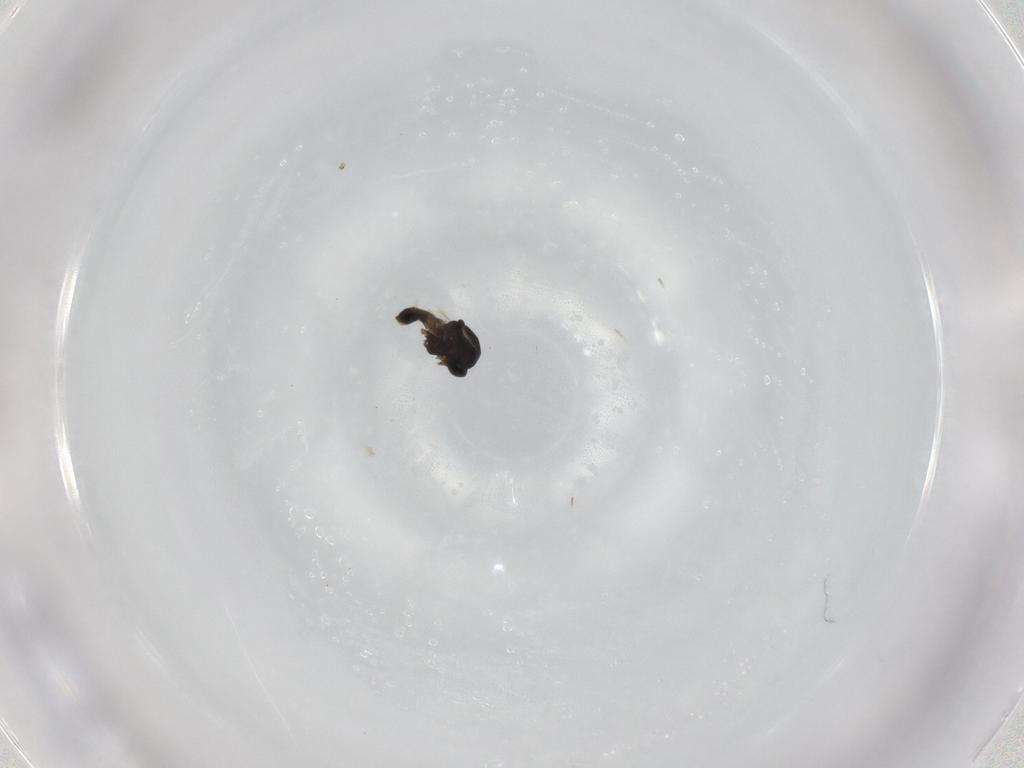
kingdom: Animalia
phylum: Arthropoda
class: Insecta
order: Diptera
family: Ceratopogonidae
